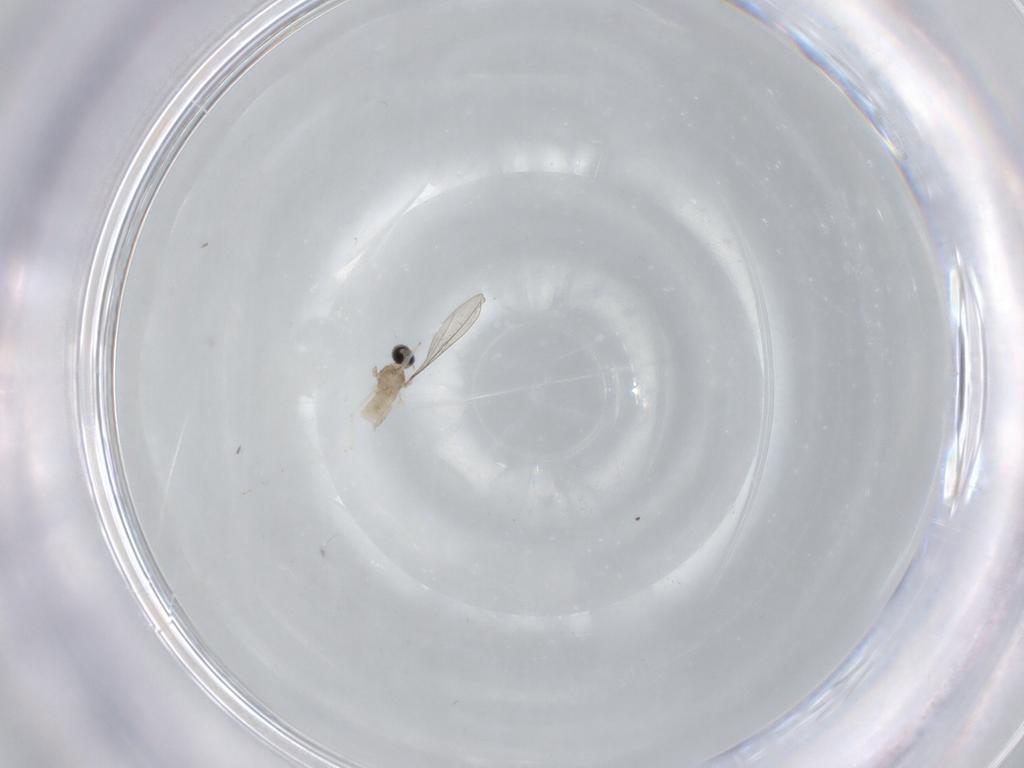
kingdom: Animalia
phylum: Arthropoda
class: Insecta
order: Diptera
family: Cecidomyiidae
